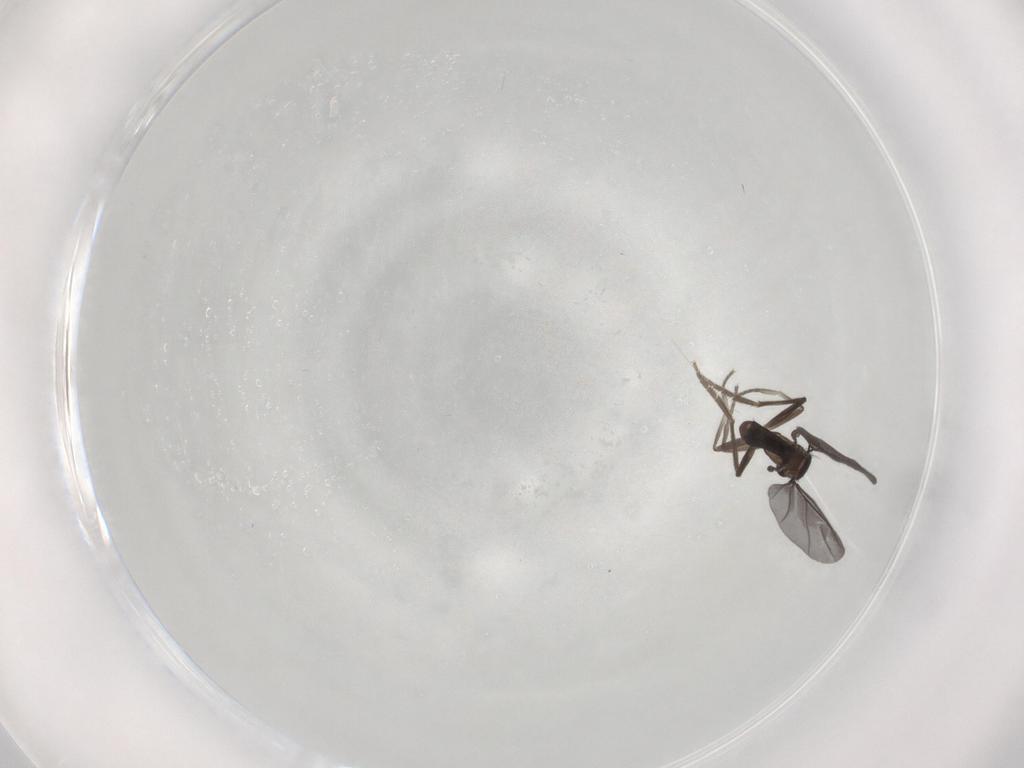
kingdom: Animalia
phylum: Arthropoda
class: Insecta
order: Diptera
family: Phoridae
